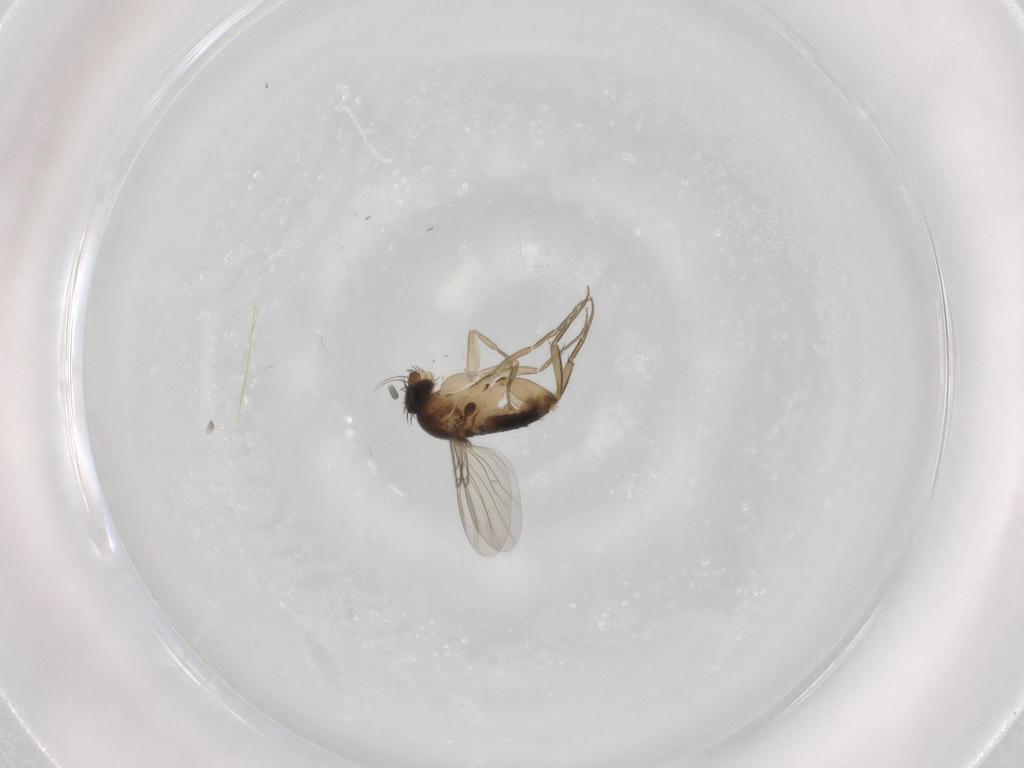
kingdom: Animalia
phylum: Arthropoda
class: Insecta
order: Diptera
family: Phoridae
